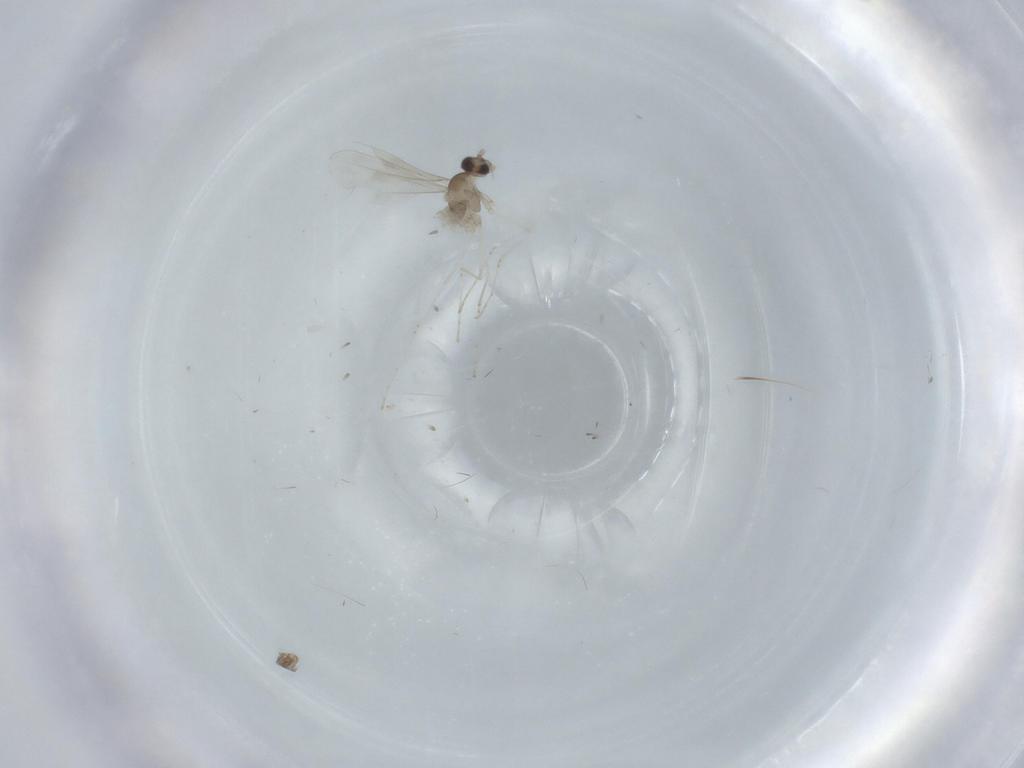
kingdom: Animalia
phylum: Arthropoda
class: Insecta
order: Diptera
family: Cecidomyiidae
